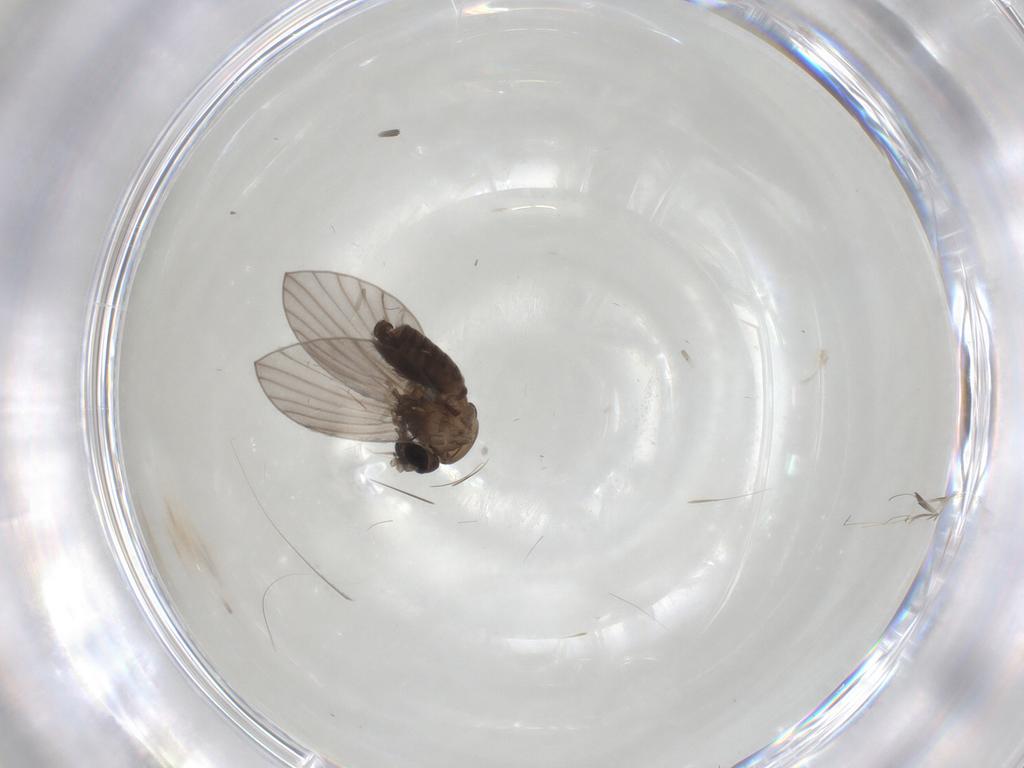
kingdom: Animalia
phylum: Arthropoda
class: Insecta
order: Diptera
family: Psychodidae
